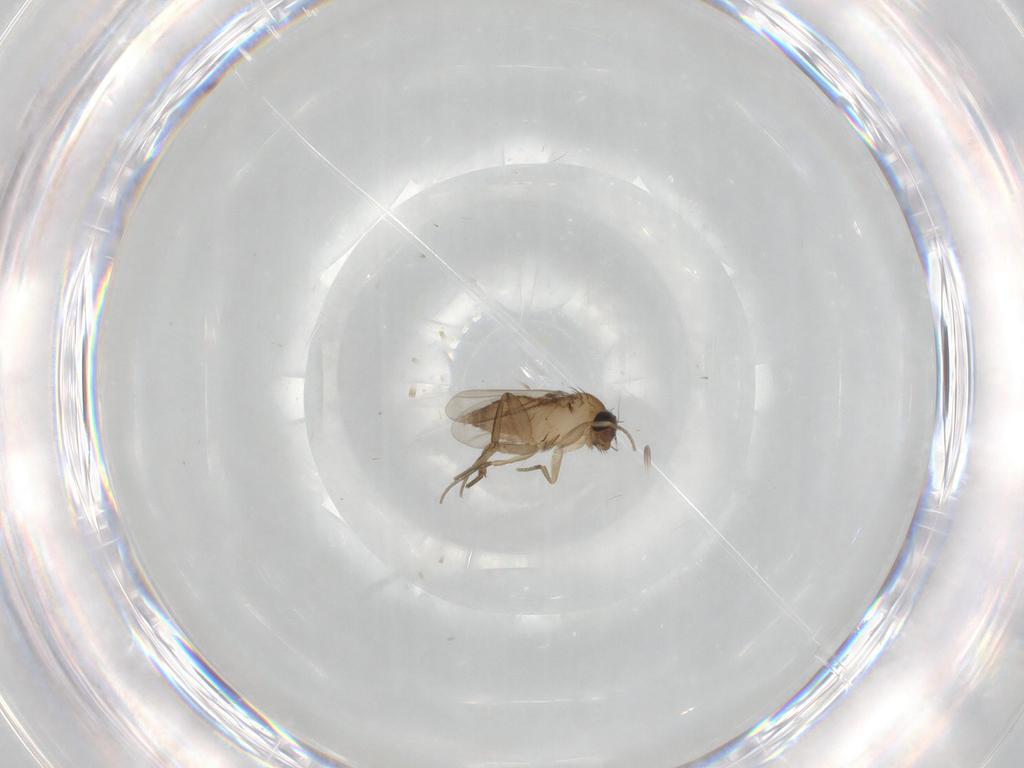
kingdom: Animalia
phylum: Arthropoda
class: Insecta
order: Diptera
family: Phoridae
